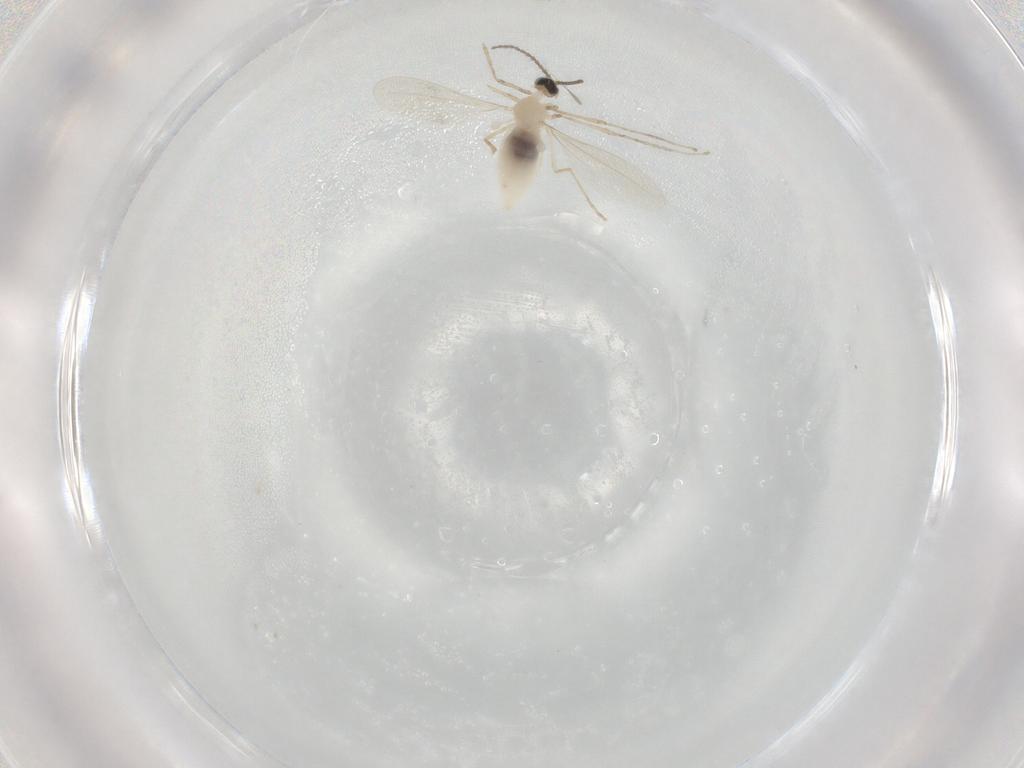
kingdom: Animalia
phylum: Arthropoda
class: Insecta
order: Diptera
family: Cecidomyiidae
